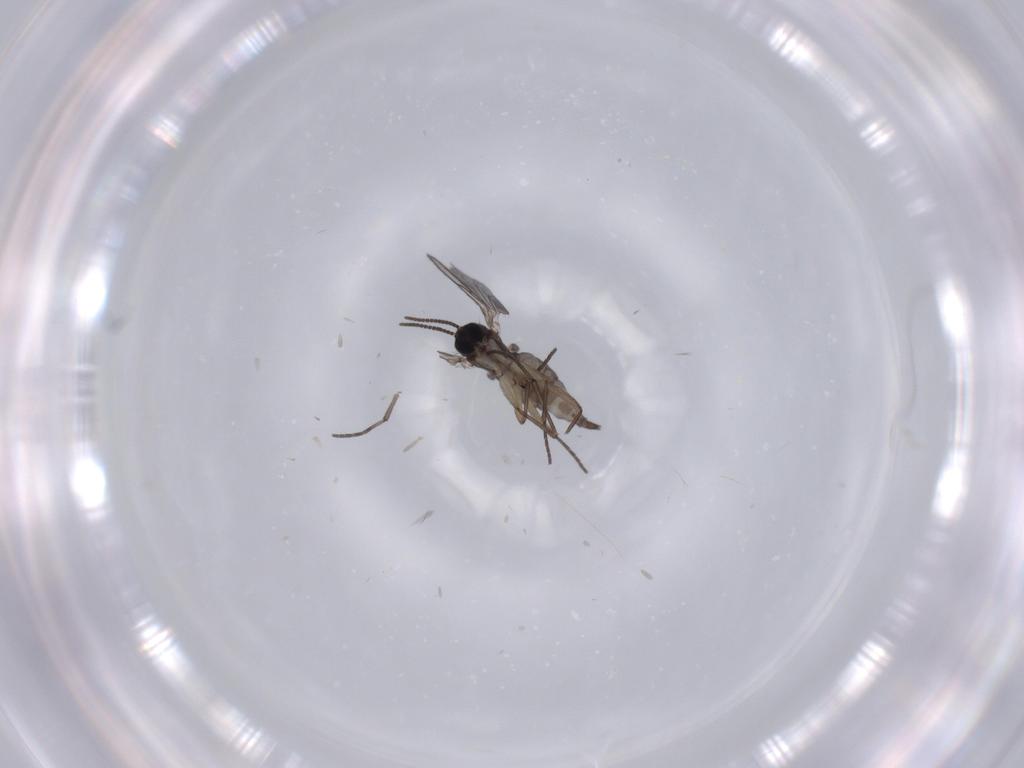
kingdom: Animalia
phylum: Arthropoda
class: Insecta
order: Diptera
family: Sciaridae
